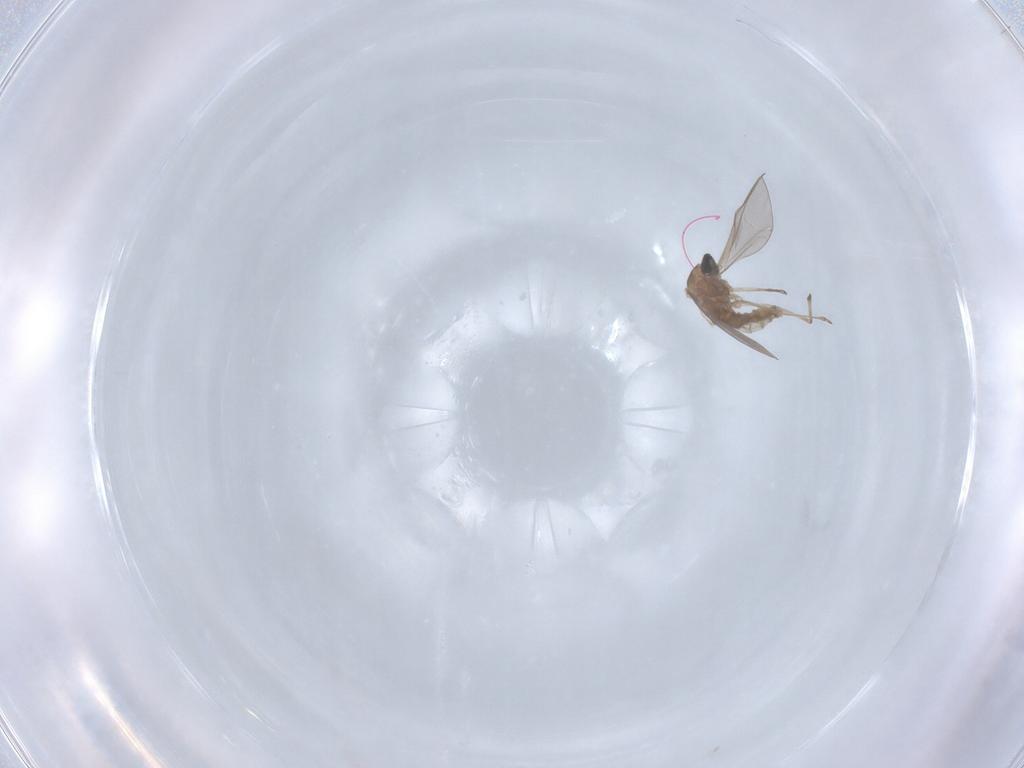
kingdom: Animalia
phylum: Arthropoda
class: Insecta
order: Diptera
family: Cecidomyiidae
